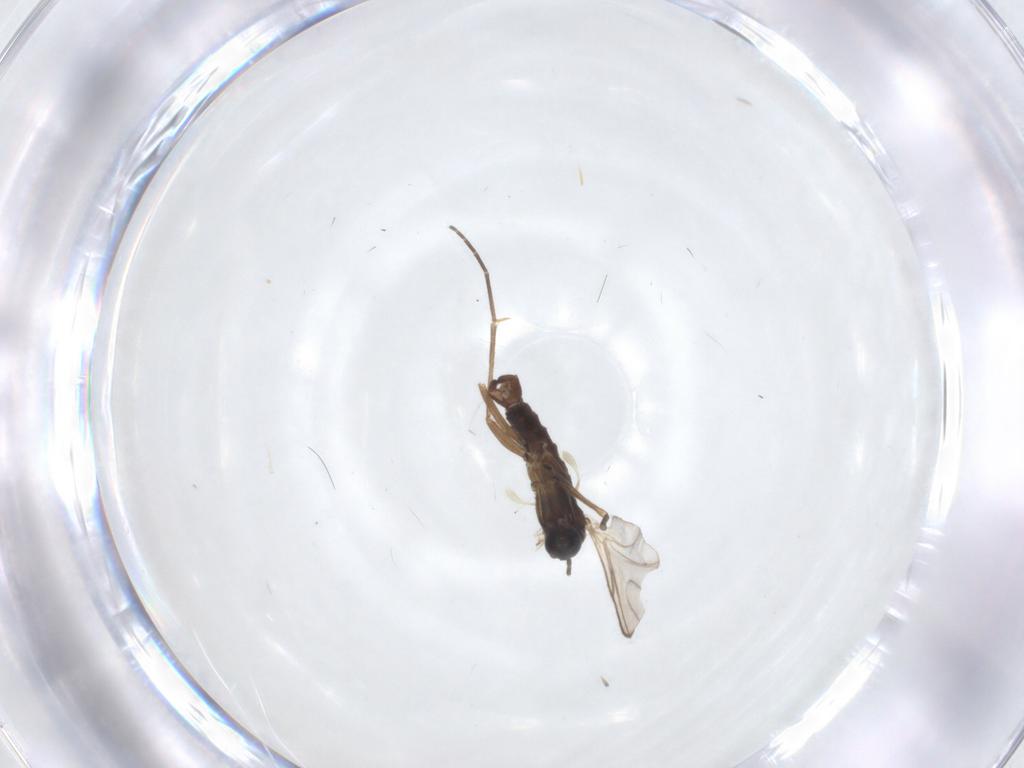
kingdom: Animalia
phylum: Arthropoda
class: Insecta
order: Diptera
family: Sciaridae
